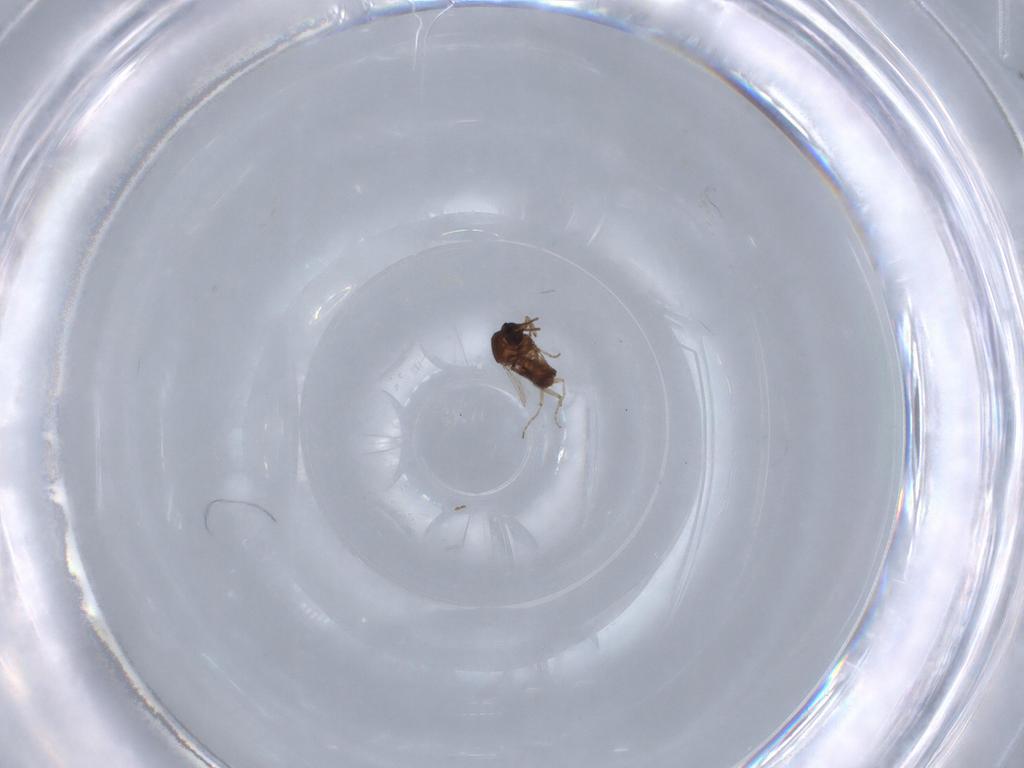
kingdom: Animalia
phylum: Arthropoda
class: Insecta
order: Diptera
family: Ceratopogonidae
